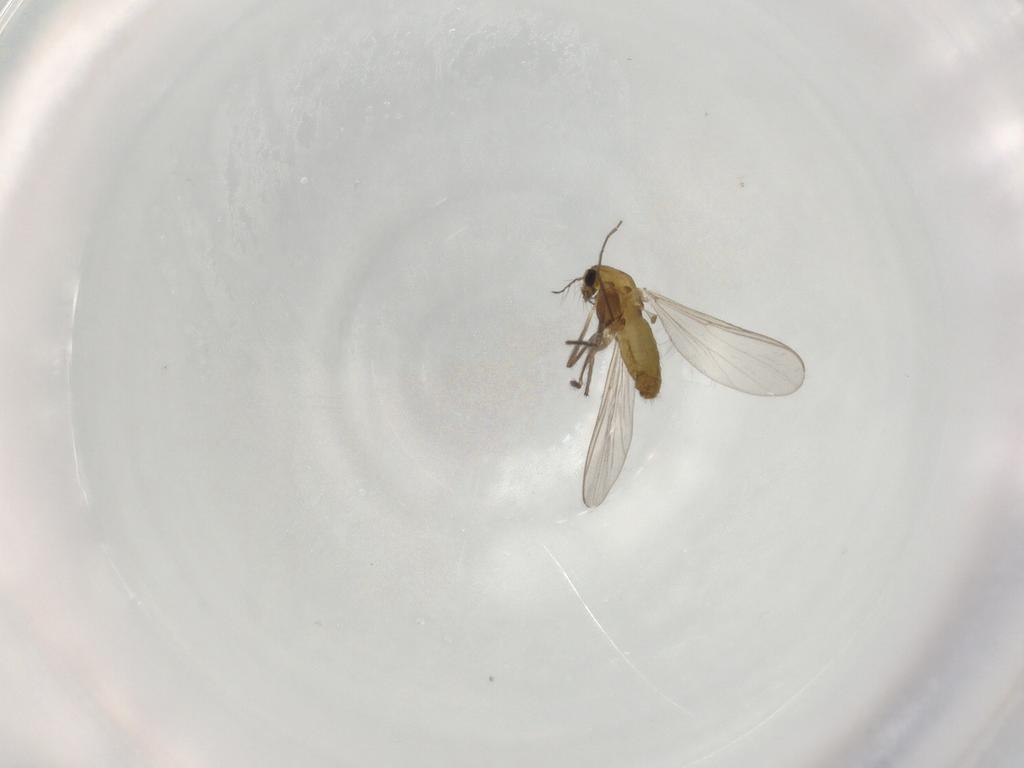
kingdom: Animalia
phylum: Arthropoda
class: Insecta
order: Diptera
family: Chironomidae
